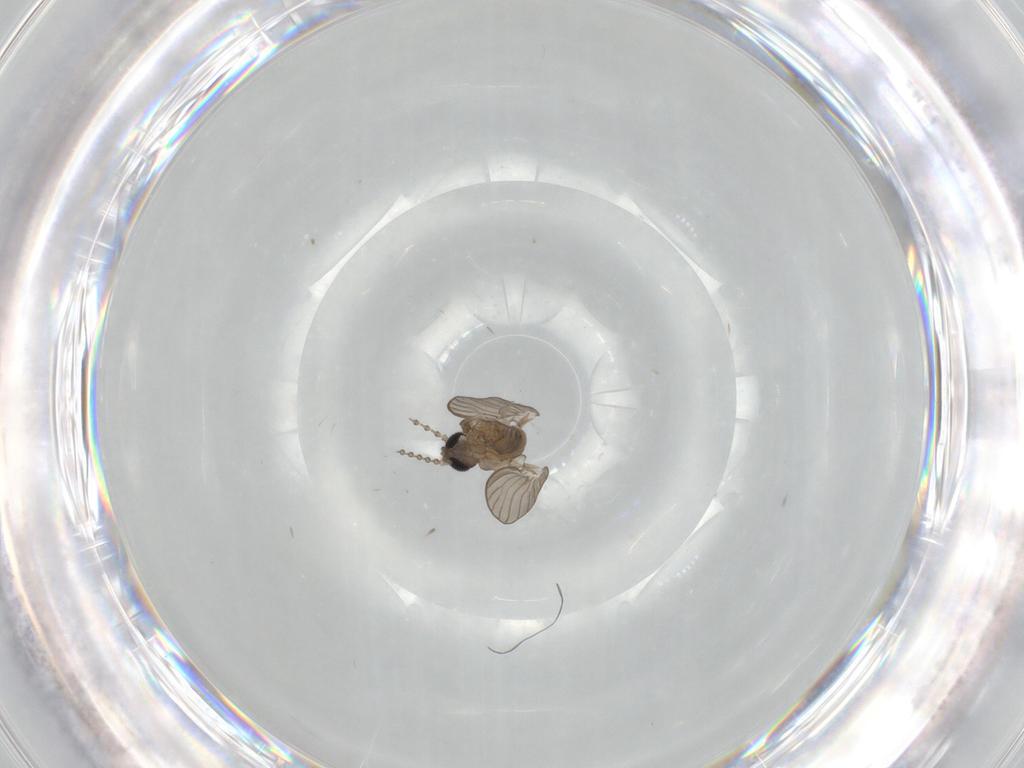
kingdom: Animalia
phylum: Arthropoda
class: Insecta
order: Diptera
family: Psychodidae
